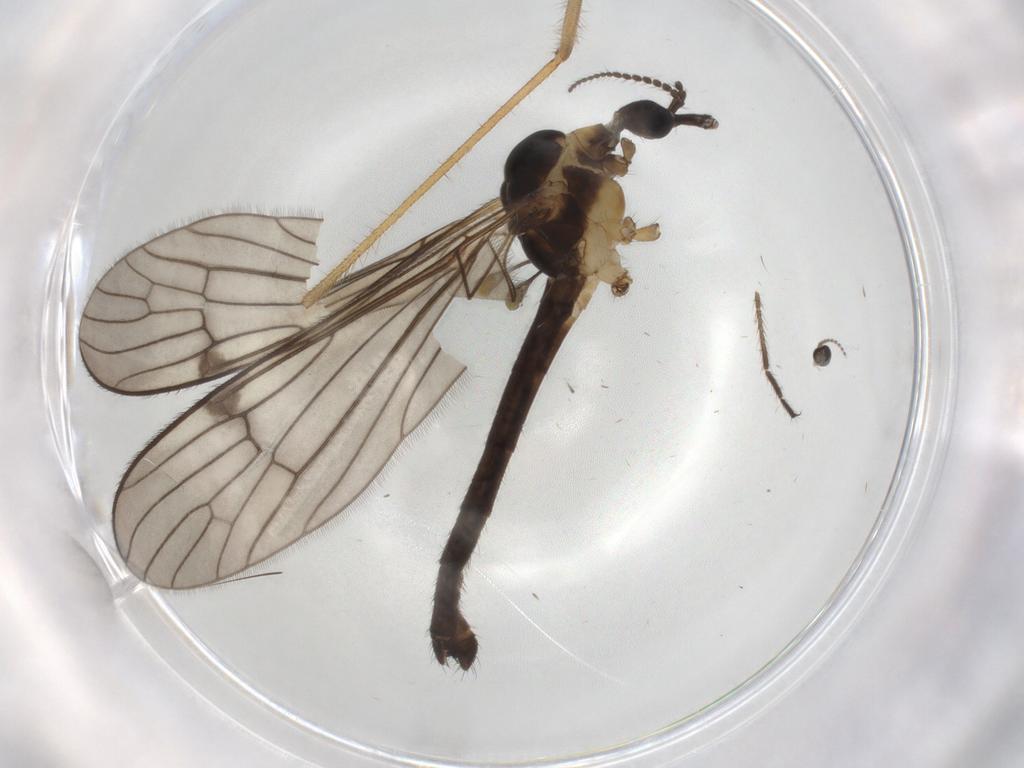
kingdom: Animalia
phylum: Arthropoda
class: Insecta
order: Diptera
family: Limoniidae
